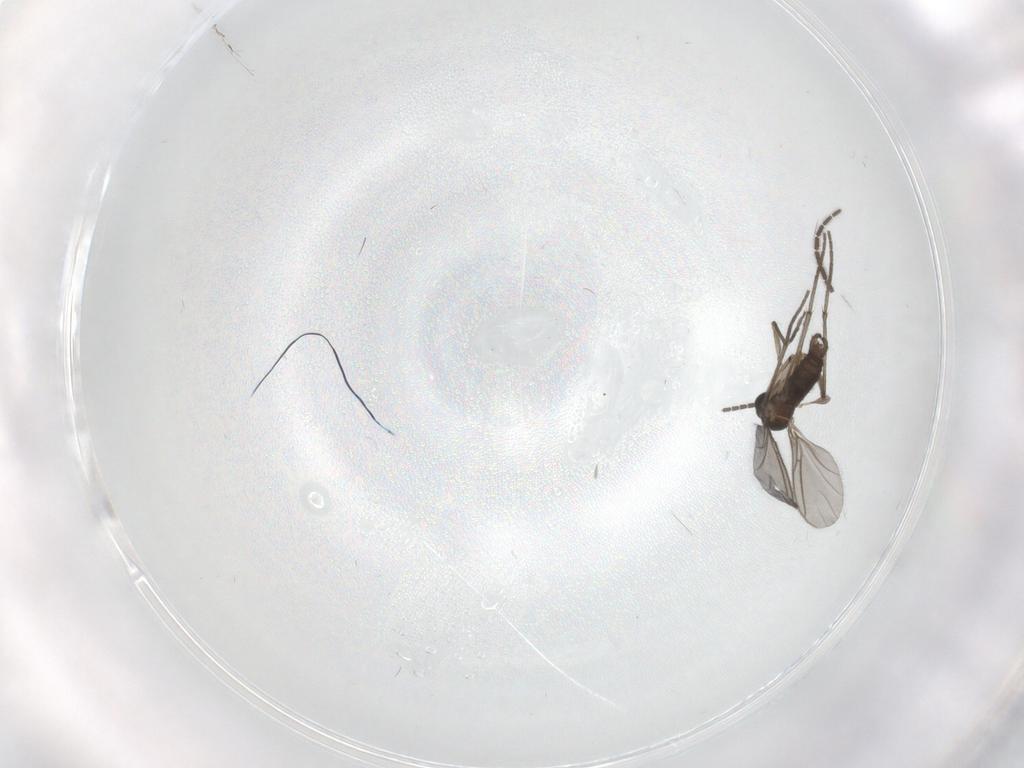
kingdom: Animalia
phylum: Arthropoda
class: Insecta
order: Diptera
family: Sciaridae
